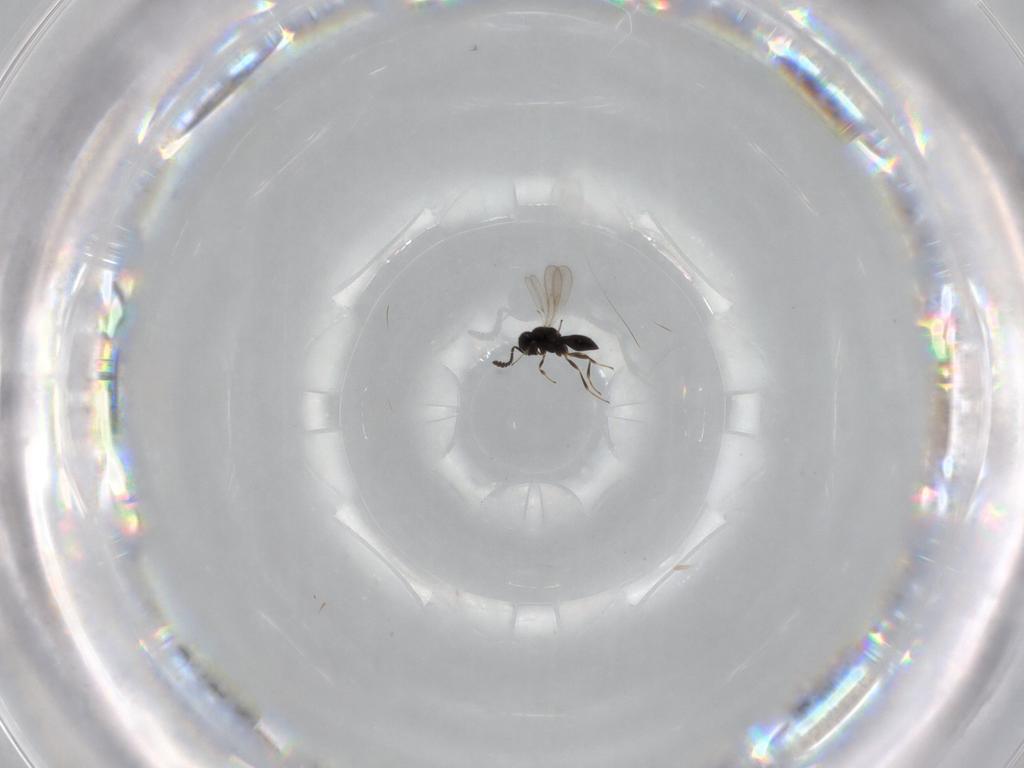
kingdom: Animalia
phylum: Arthropoda
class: Insecta
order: Hymenoptera
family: Scelionidae
